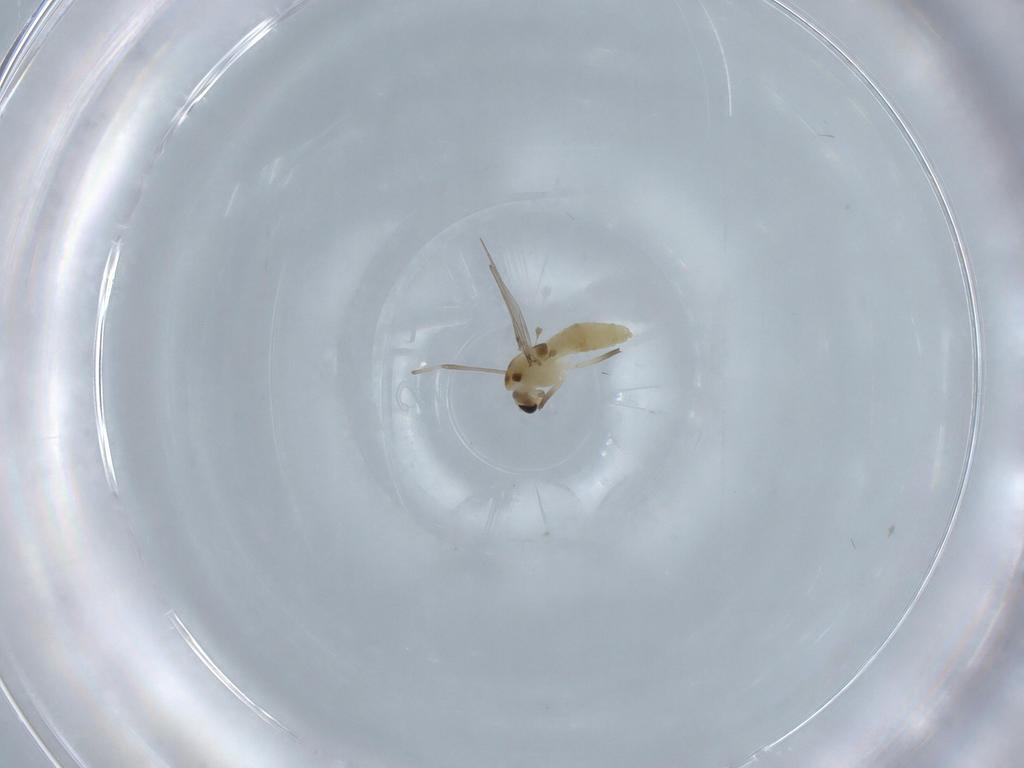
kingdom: Animalia
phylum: Arthropoda
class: Insecta
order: Diptera
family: Chironomidae
